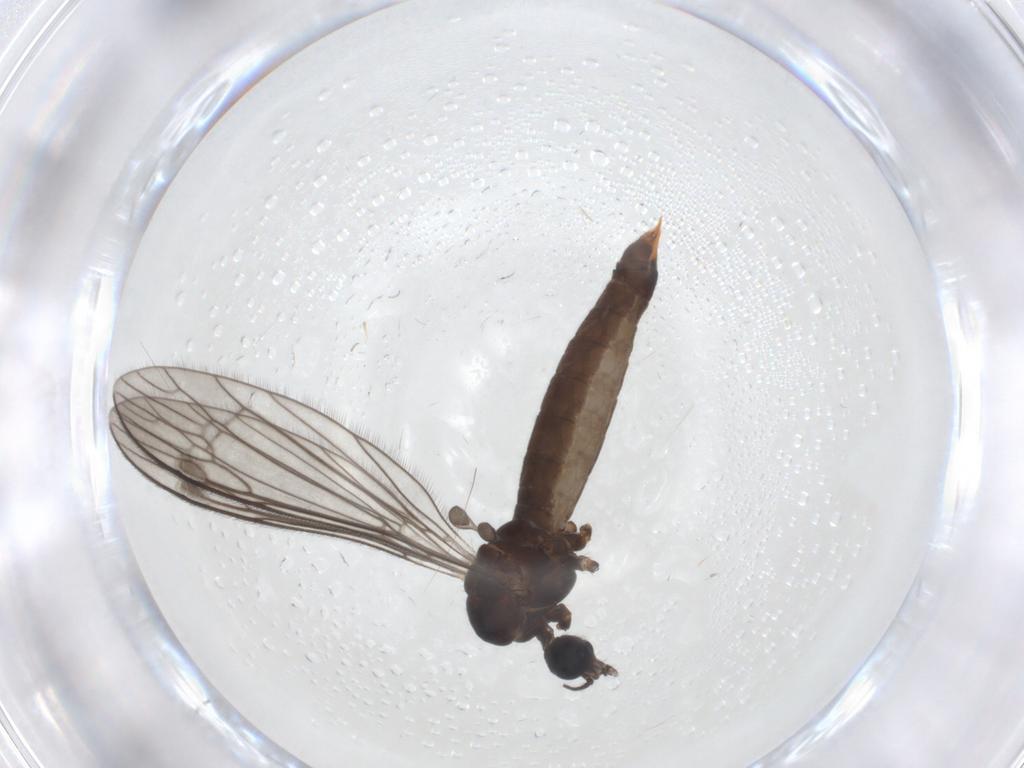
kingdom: Animalia
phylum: Arthropoda
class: Insecta
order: Diptera
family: Limoniidae
